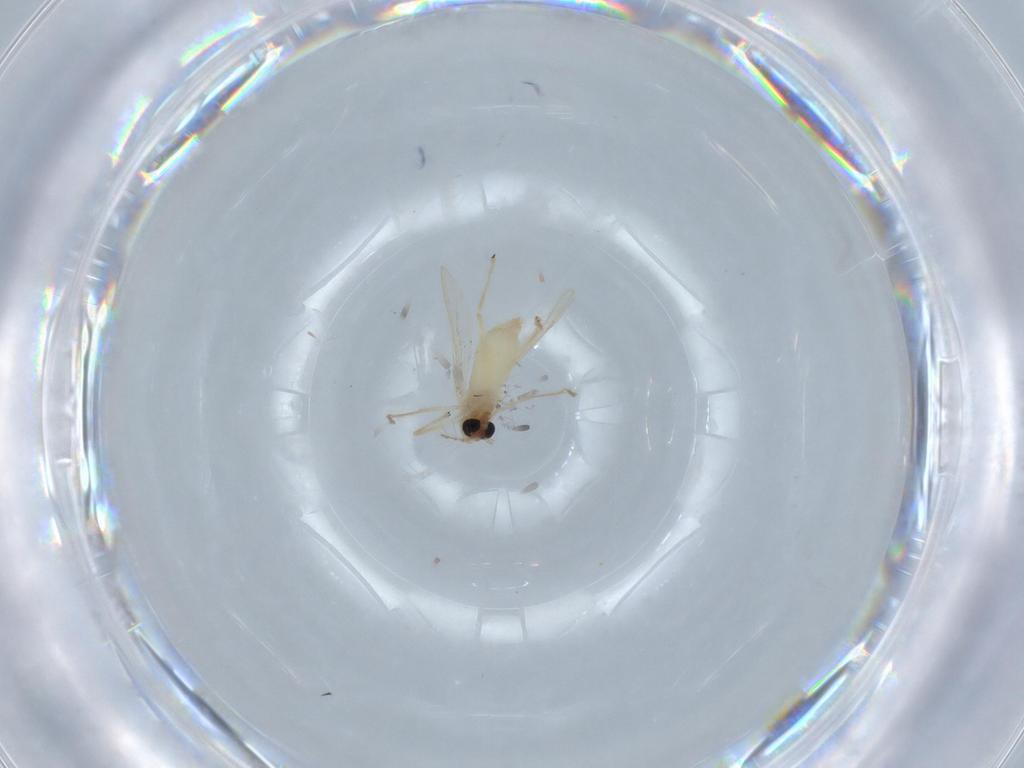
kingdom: Animalia
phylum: Arthropoda
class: Insecta
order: Diptera
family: Chironomidae
